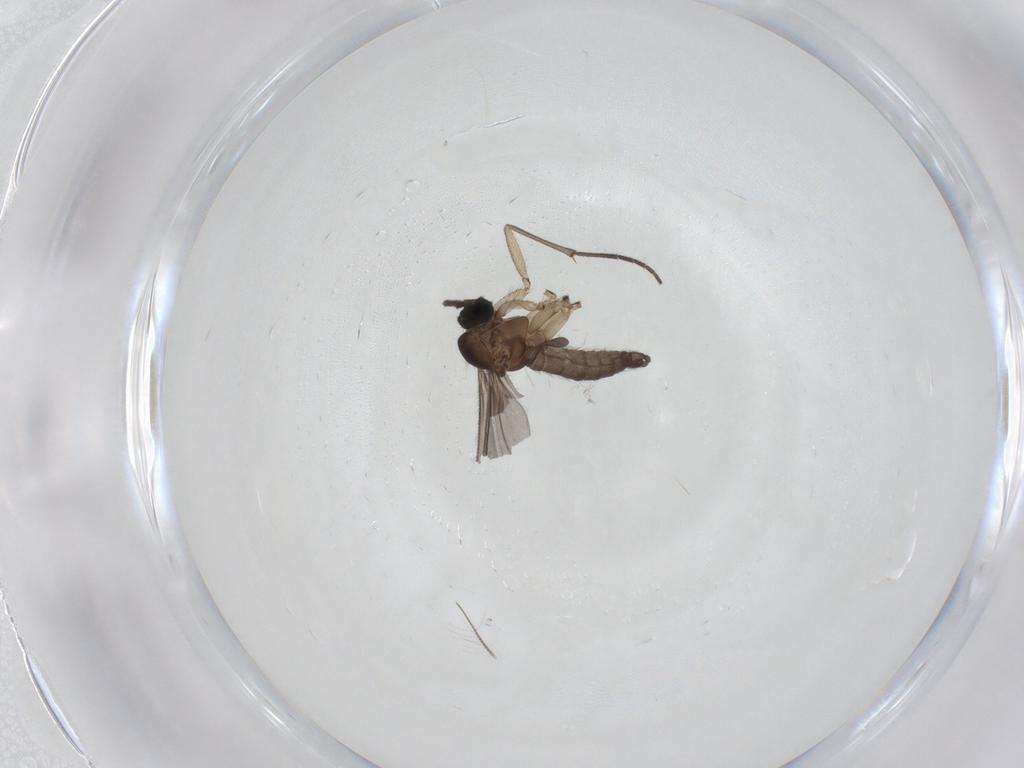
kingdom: Animalia
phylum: Arthropoda
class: Insecta
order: Diptera
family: Sciaridae
